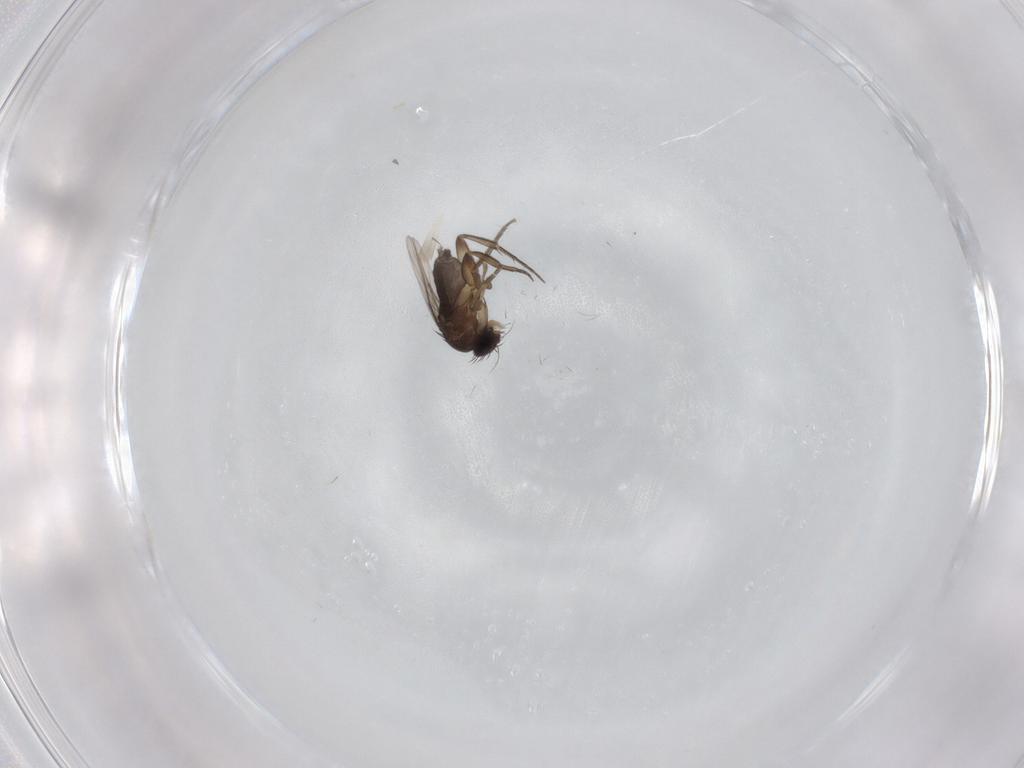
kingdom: Animalia
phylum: Arthropoda
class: Insecta
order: Diptera
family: Phoridae
